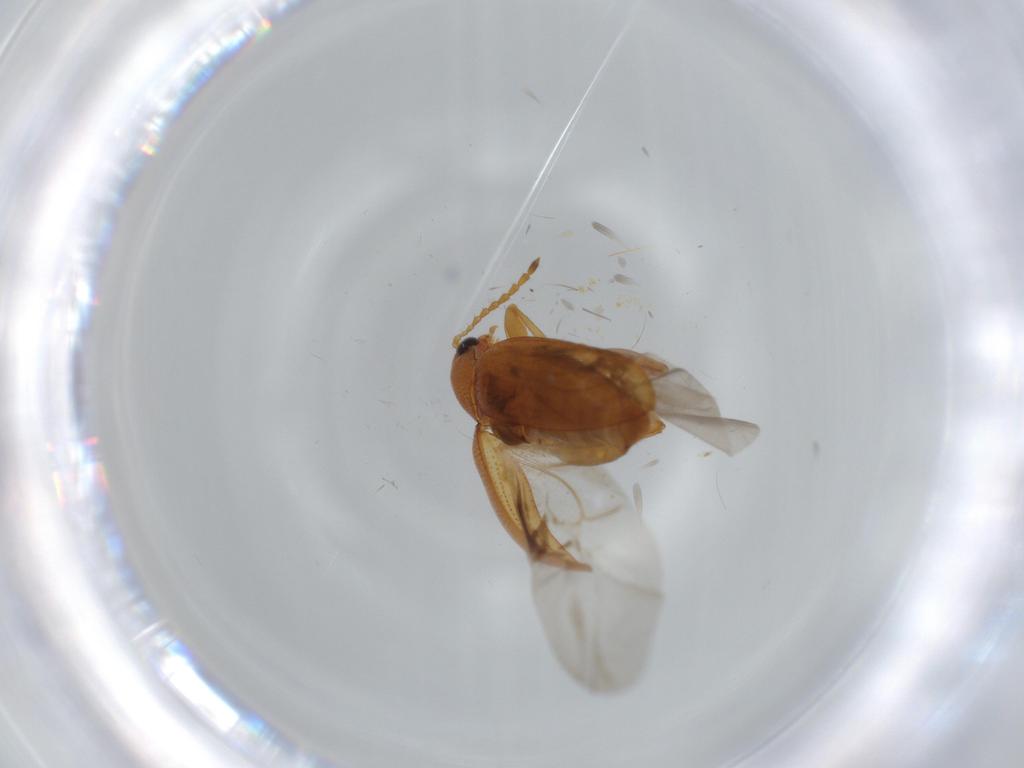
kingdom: Animalia
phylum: Arthropoda
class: Insecta
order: Coleoptera
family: Chrysomelidae
